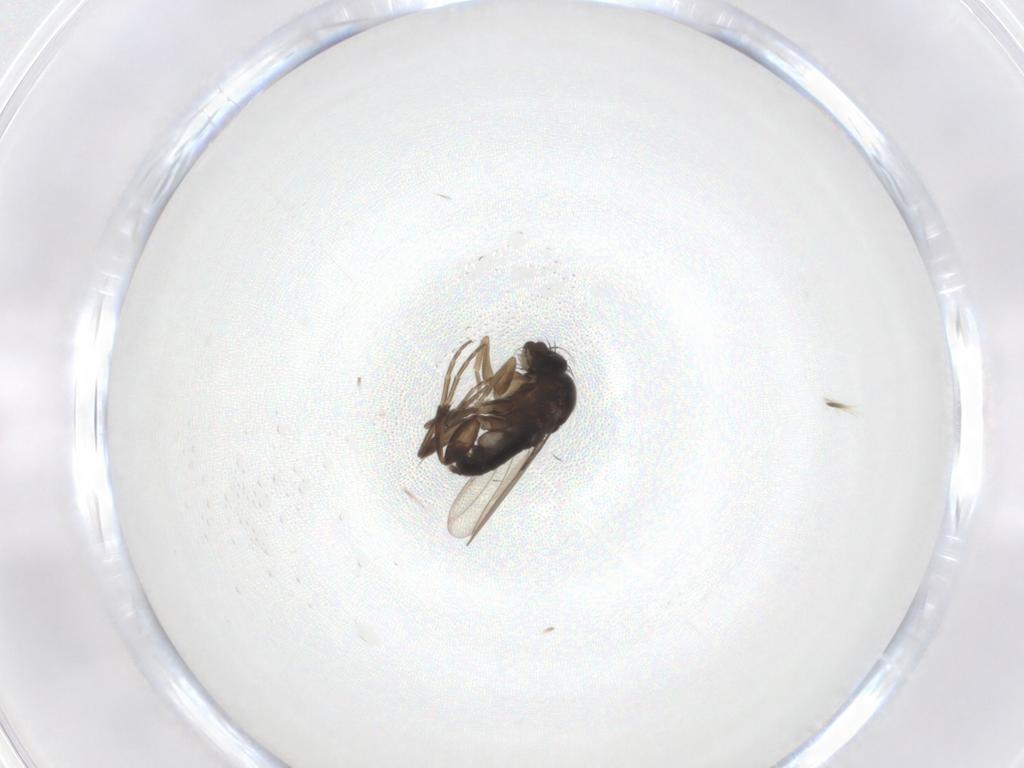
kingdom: Animalia
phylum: Arthropoda
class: Insecta
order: Diptera
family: Phoridae
